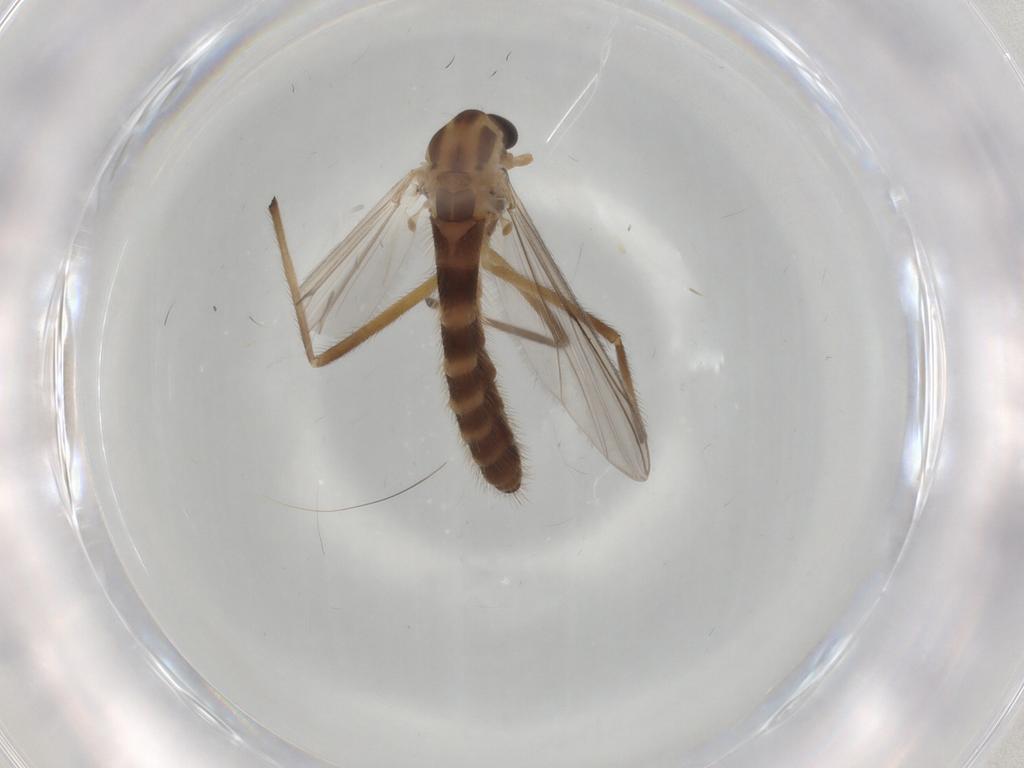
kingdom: Animalia
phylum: Arthropoda
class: Insecta
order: Diptera
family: Chironomidae
